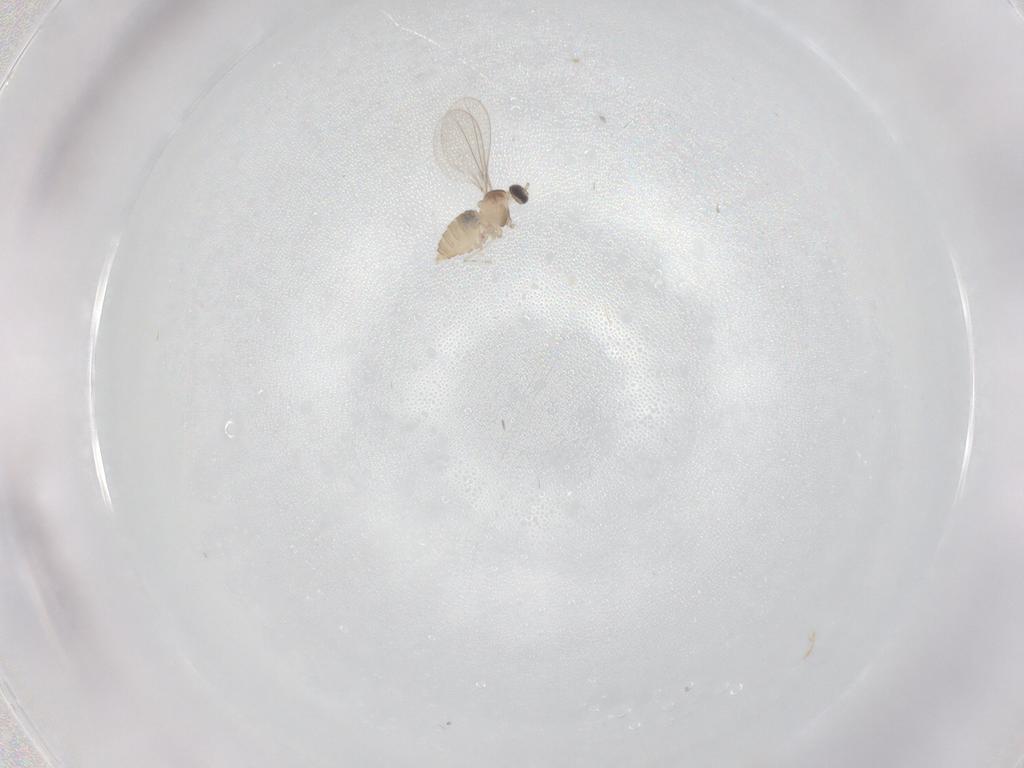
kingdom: Animalia
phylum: Arthropoda
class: Insecta
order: Diptera
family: Cecidomyiidae
